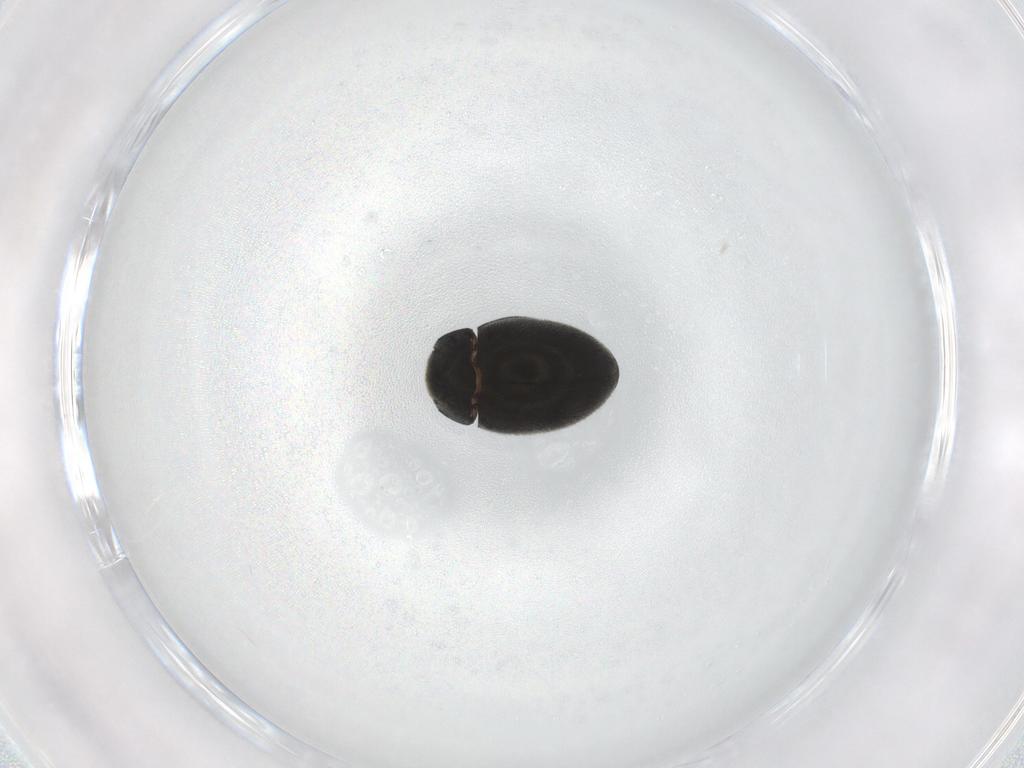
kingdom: Animalia
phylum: Arthropoda
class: Insecta
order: Coleoptera
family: Limnichidae
